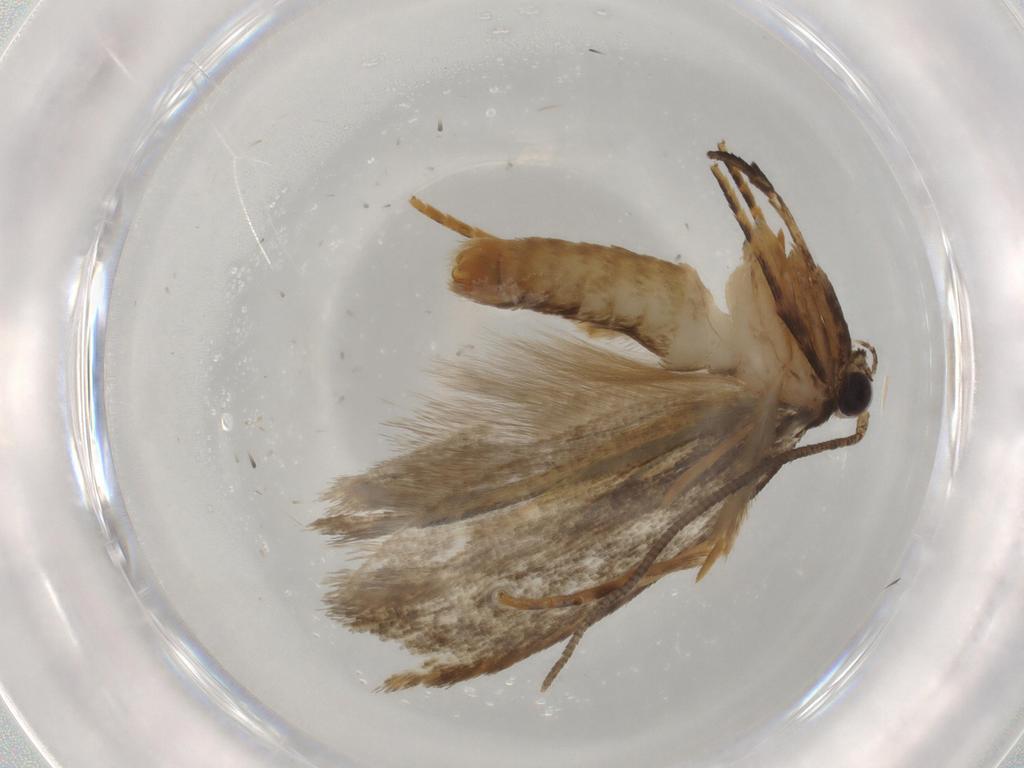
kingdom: Animalia
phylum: Arthropoda
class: Insecta
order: Lepidoptera
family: Tineidae
